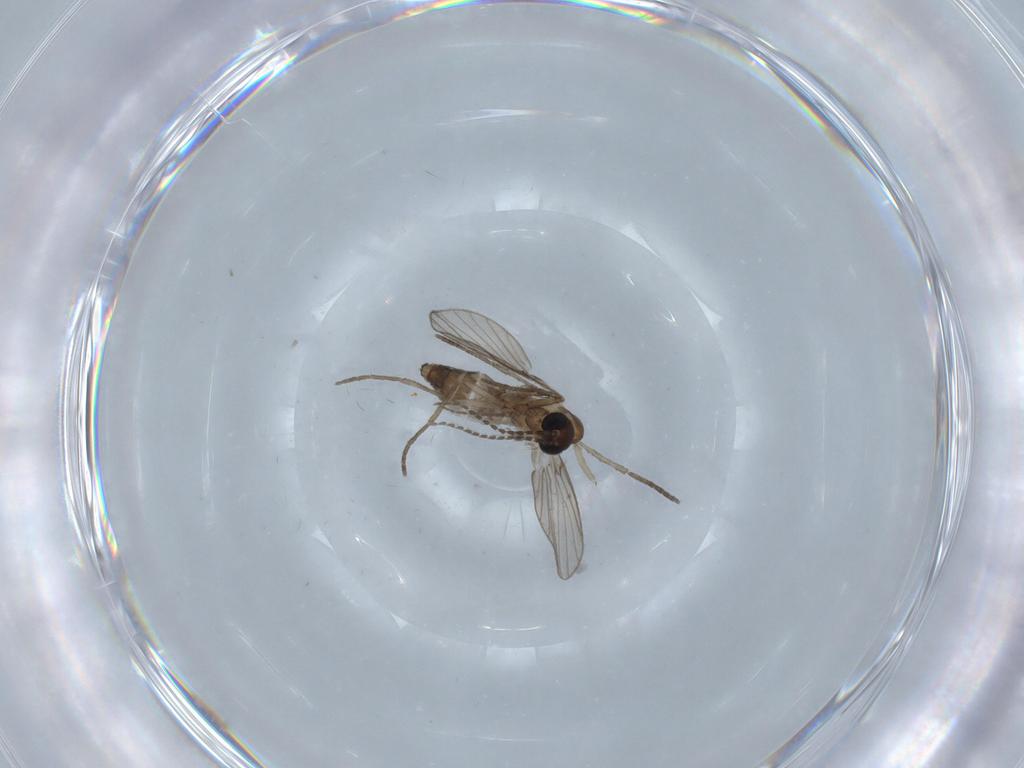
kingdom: Animalia
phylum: Arthropoda
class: Insecta
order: Diptera
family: Ceratopogonidae
